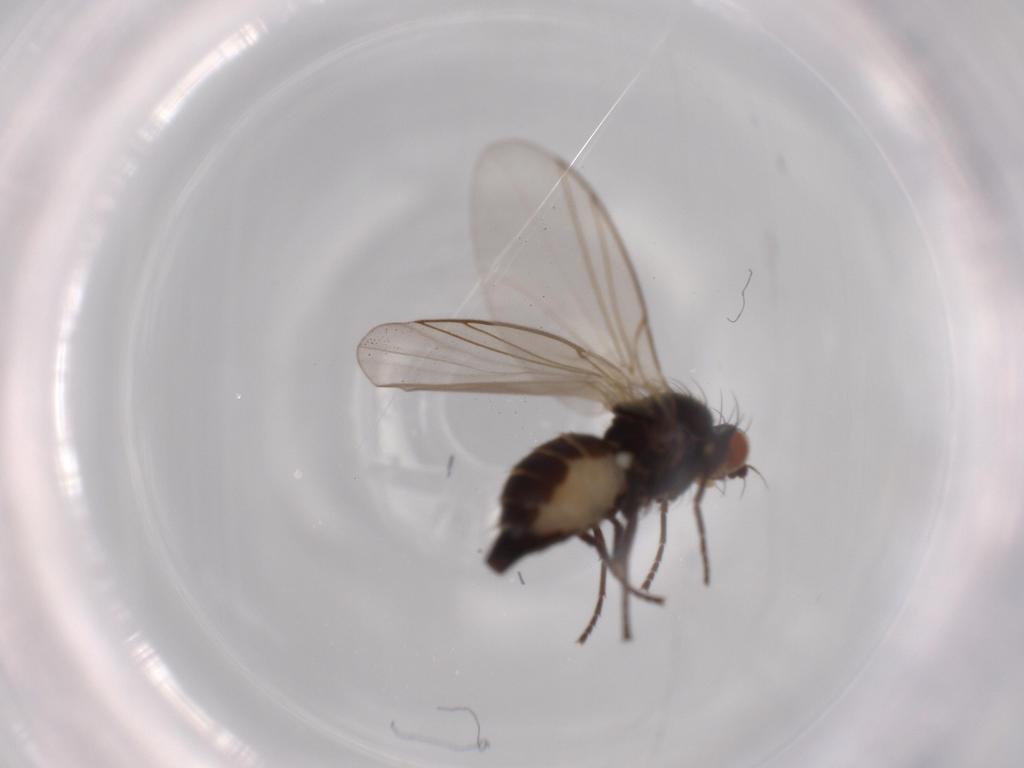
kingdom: Animalia
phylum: Arthropoda
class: Insecta
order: Diptera
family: Agromyzidae
